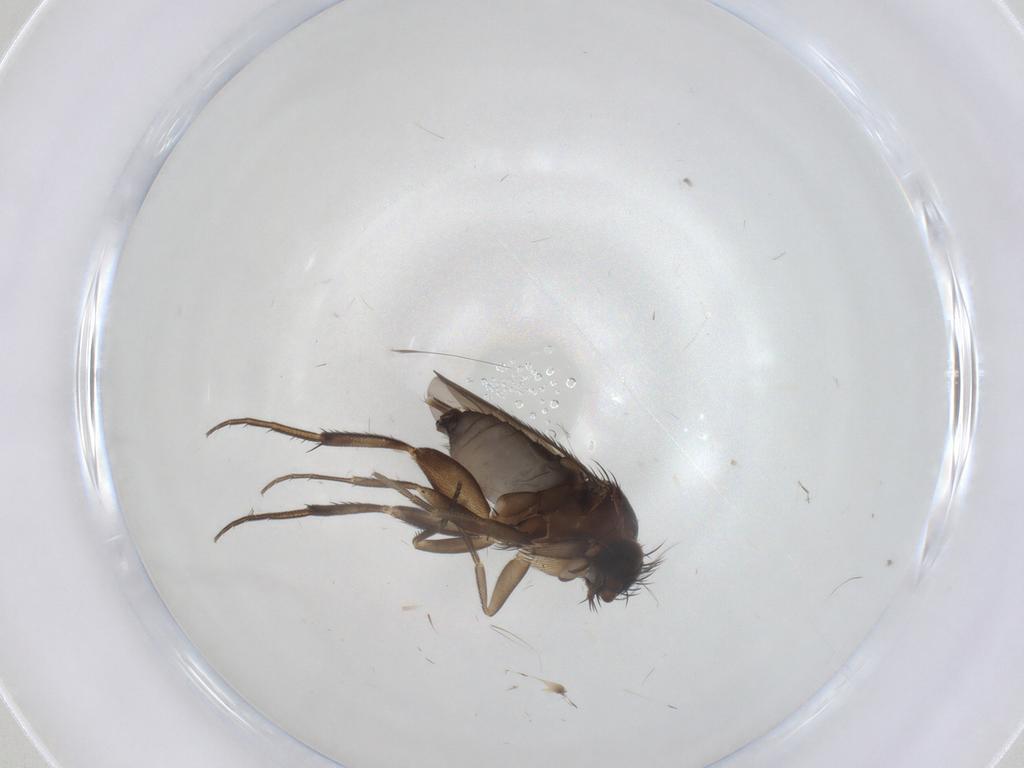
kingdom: Animalia
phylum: Arthropoda
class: Insecta
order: Diptera
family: Phoridae
